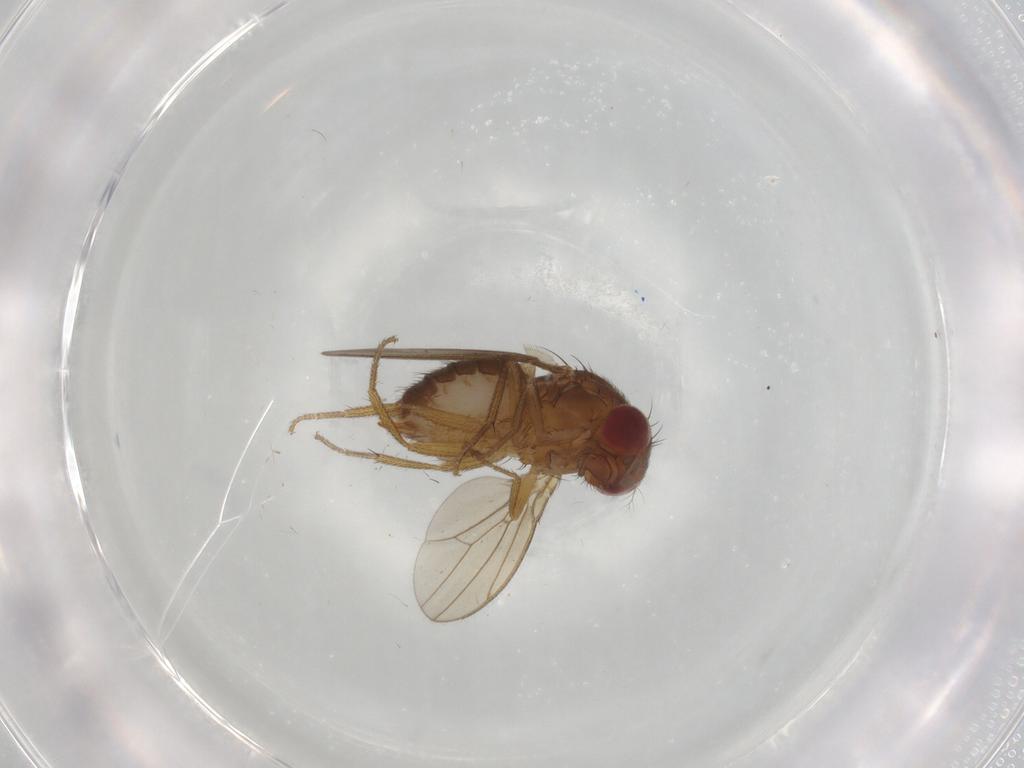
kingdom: Animalia
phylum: Arthropoda
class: Insecta
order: Diptera
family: Drosophilidae
